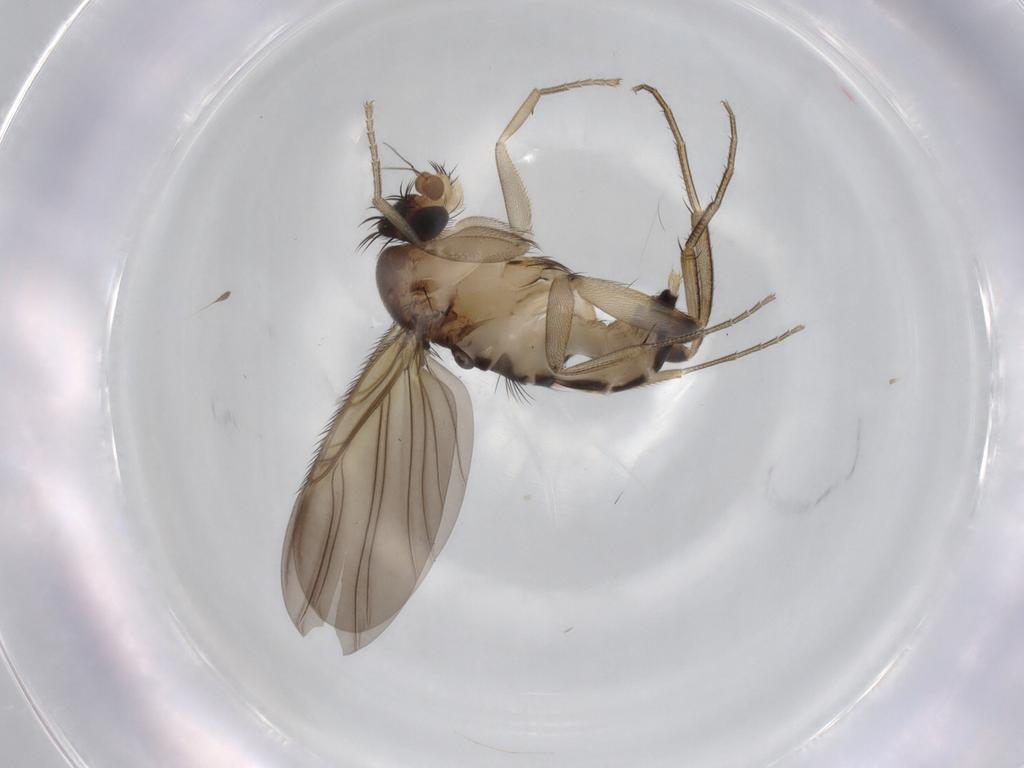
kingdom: Animalia
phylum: Arthropoda
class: Insecta
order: Diptera
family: Phoridae
